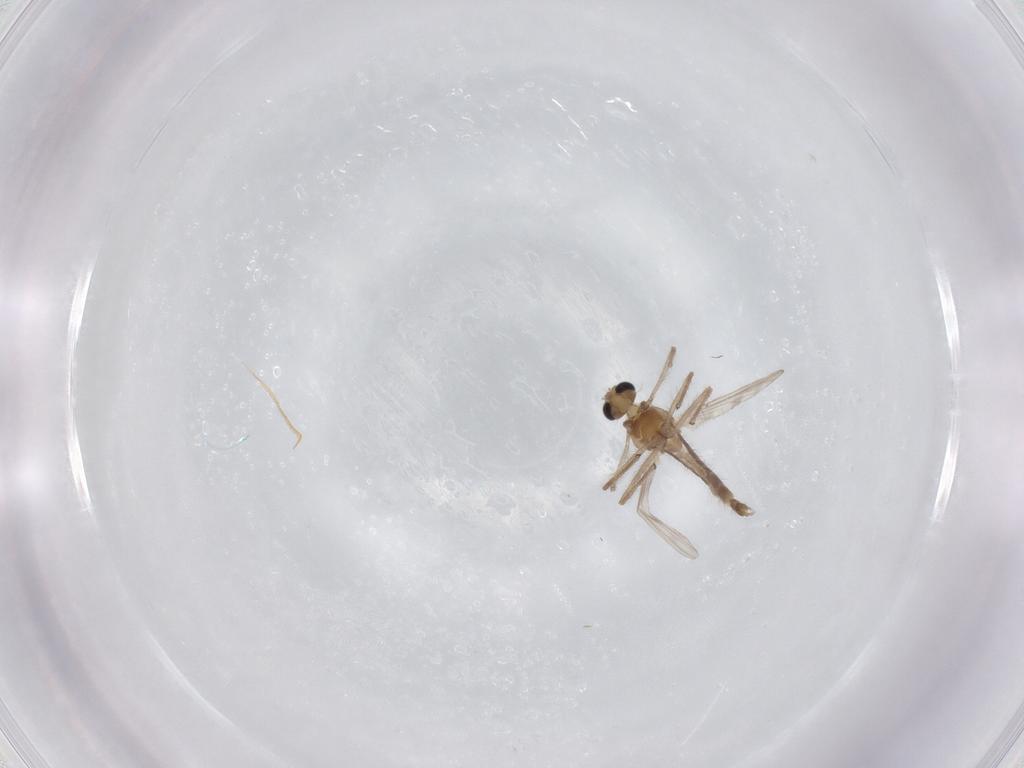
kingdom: Animalia
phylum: Arthropoda
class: Insecta
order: Diptera
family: Chironomidae
